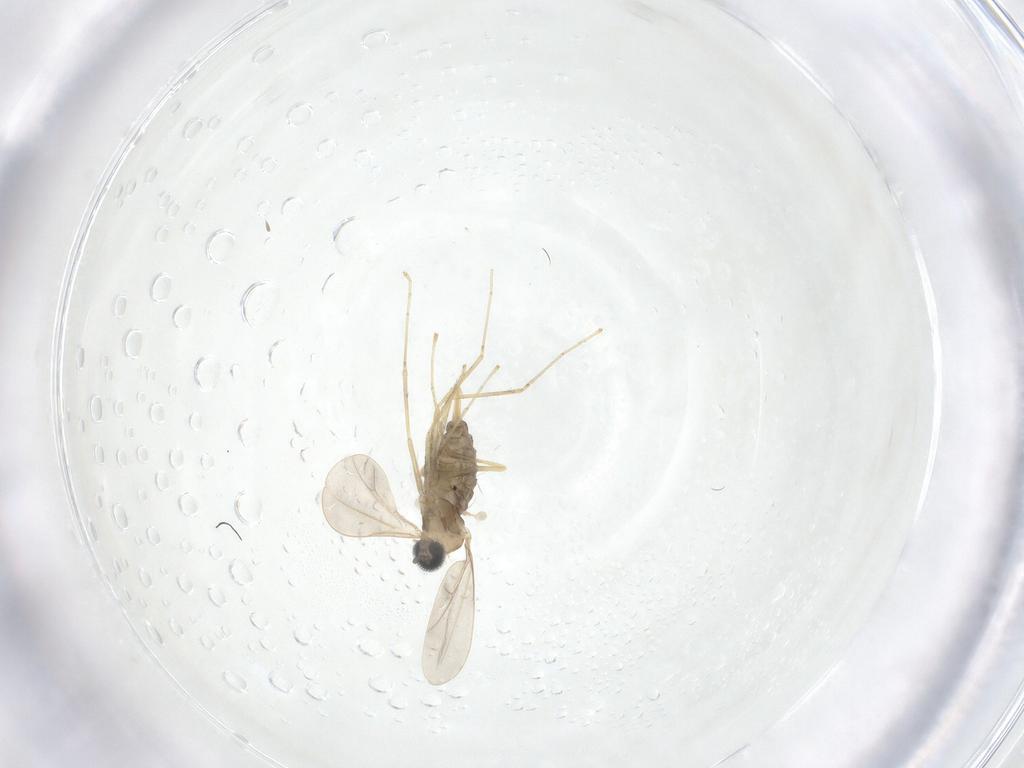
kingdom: Animalia
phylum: Arthropoda
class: Insecta
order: Diptera
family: Cecidomyiidae
